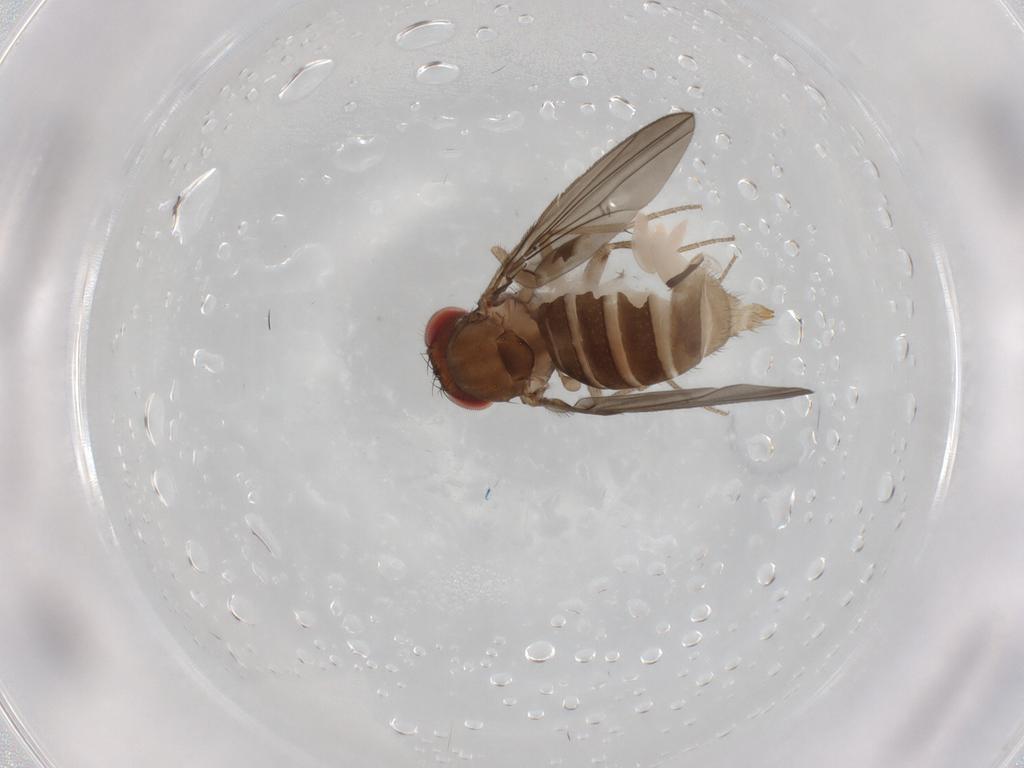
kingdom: Animalia
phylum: Arthropoda
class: Insecta
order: Diptera
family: Drosophilidae
